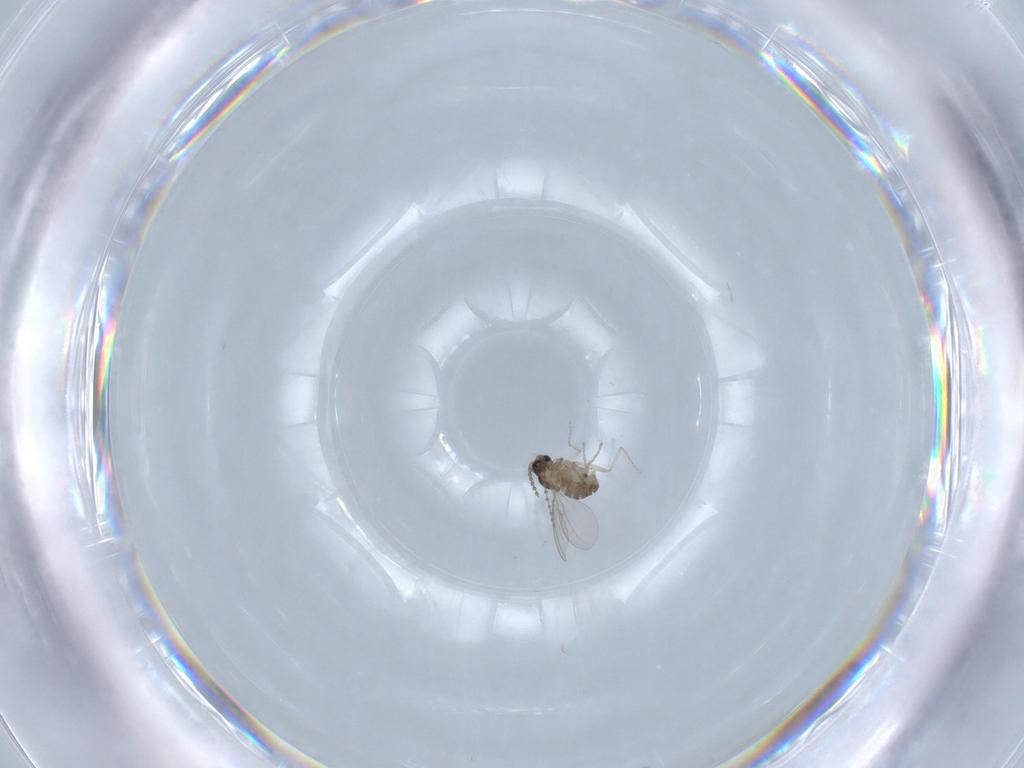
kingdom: Animalia
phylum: Arthropoda
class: Insecta
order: Diptera
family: Cecidomyiidae
